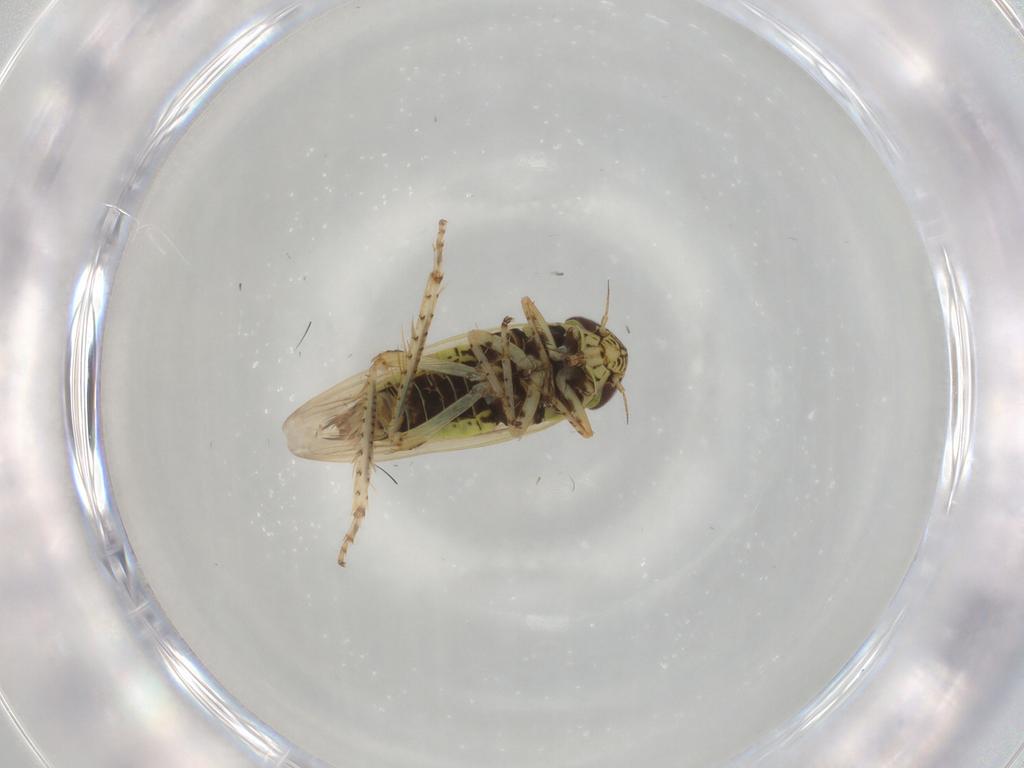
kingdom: Animalia
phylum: Arthropoda
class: Insecta
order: Hemiptera
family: Cicadellidae
